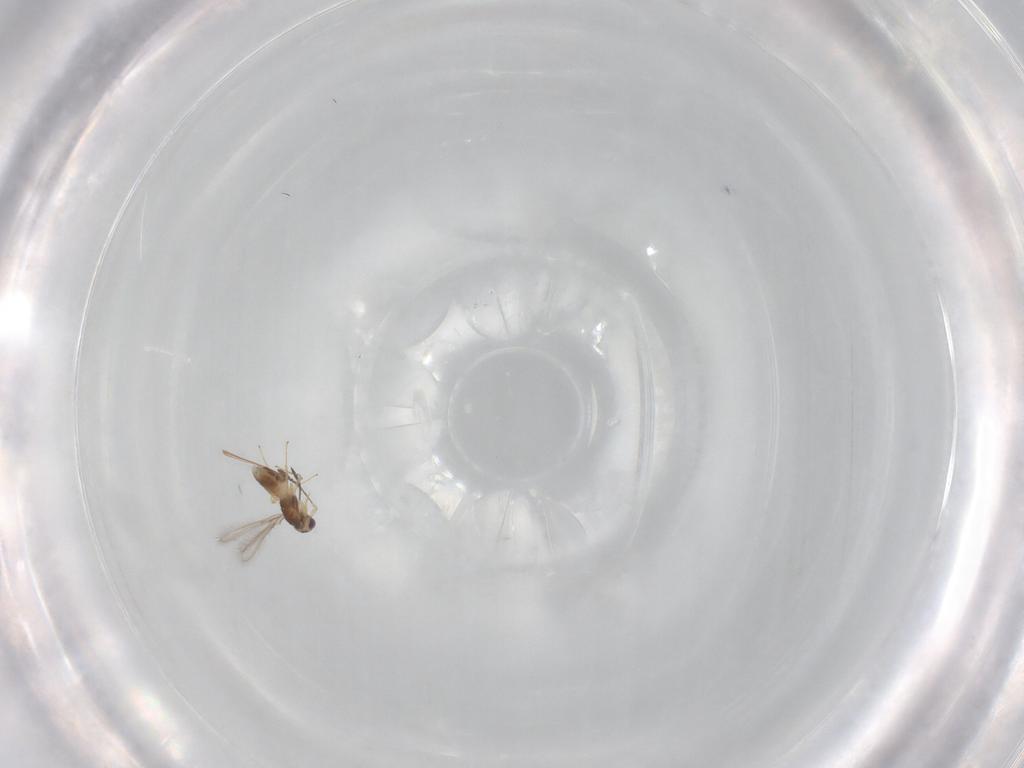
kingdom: Animalia
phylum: Arthropoda
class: Insecta
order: Hymenoptera
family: Mymaridae
